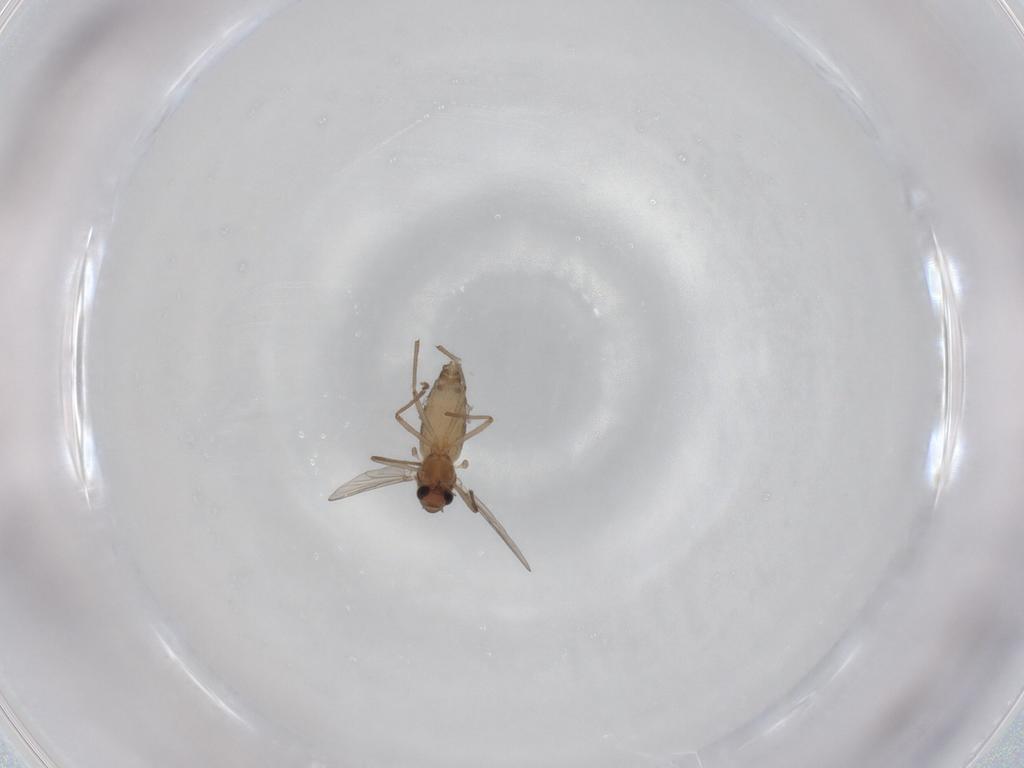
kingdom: Animalia
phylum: Arthropoda
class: Insecta
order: Diptera
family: Chironomidae
